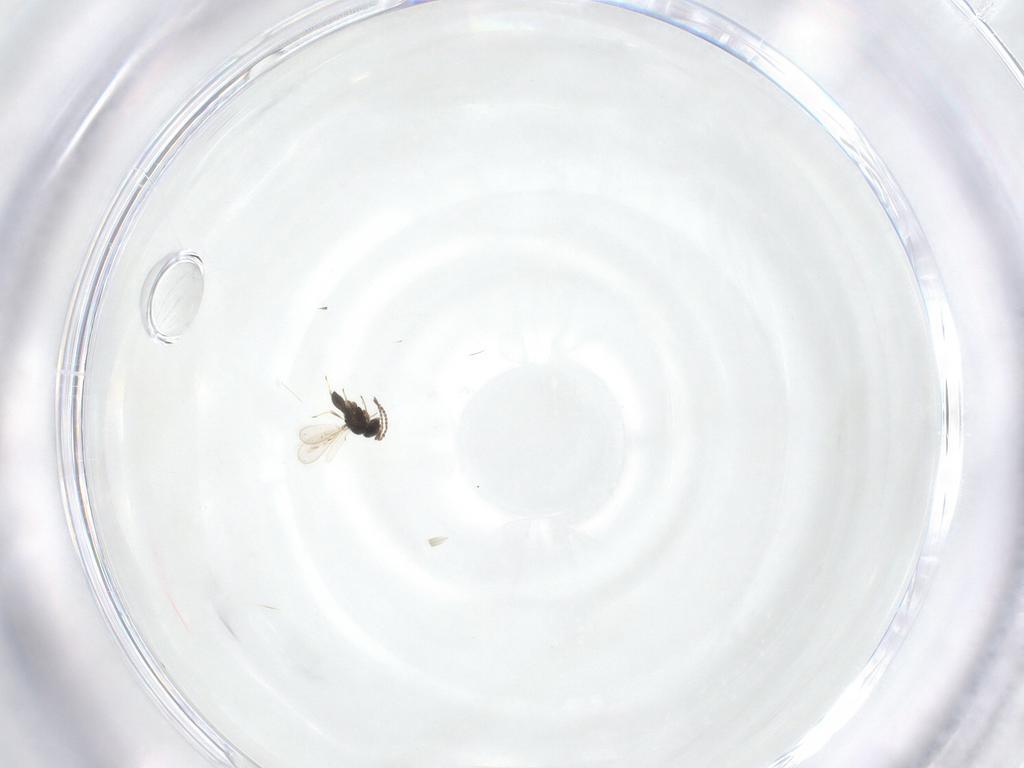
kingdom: Animalia
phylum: Arthropoda
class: Insecta
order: Hymenoptera
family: Scelionidae
